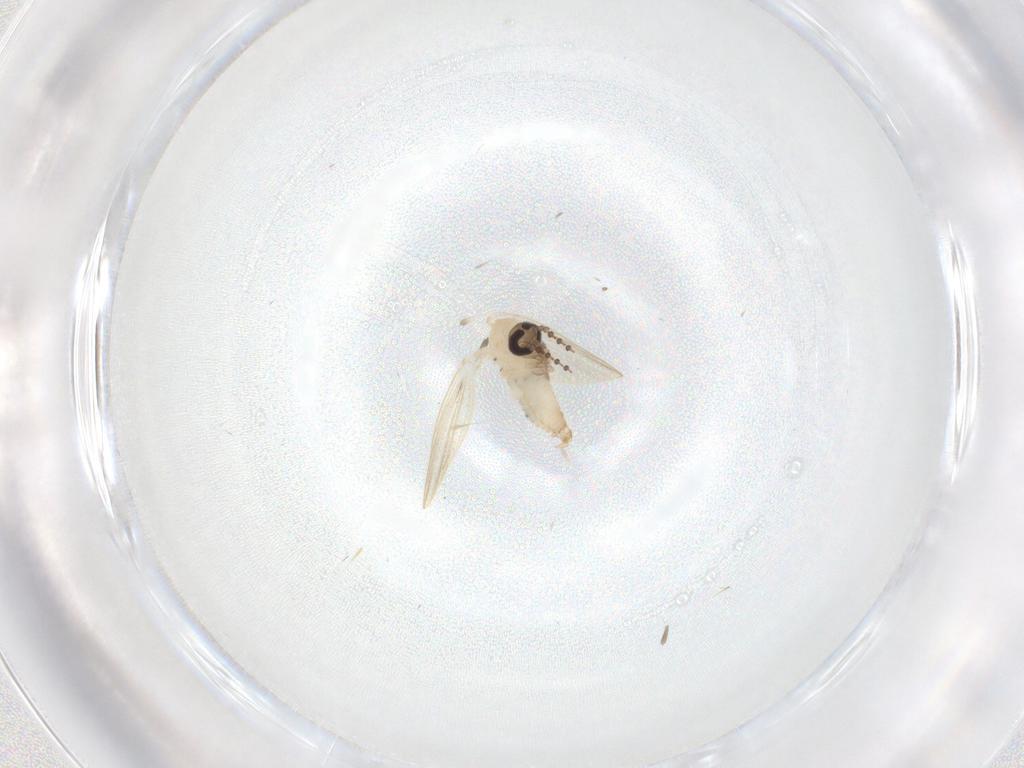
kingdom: Animalia
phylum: Arthropoda
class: Insecta
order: Diptera
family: Psychodidae
